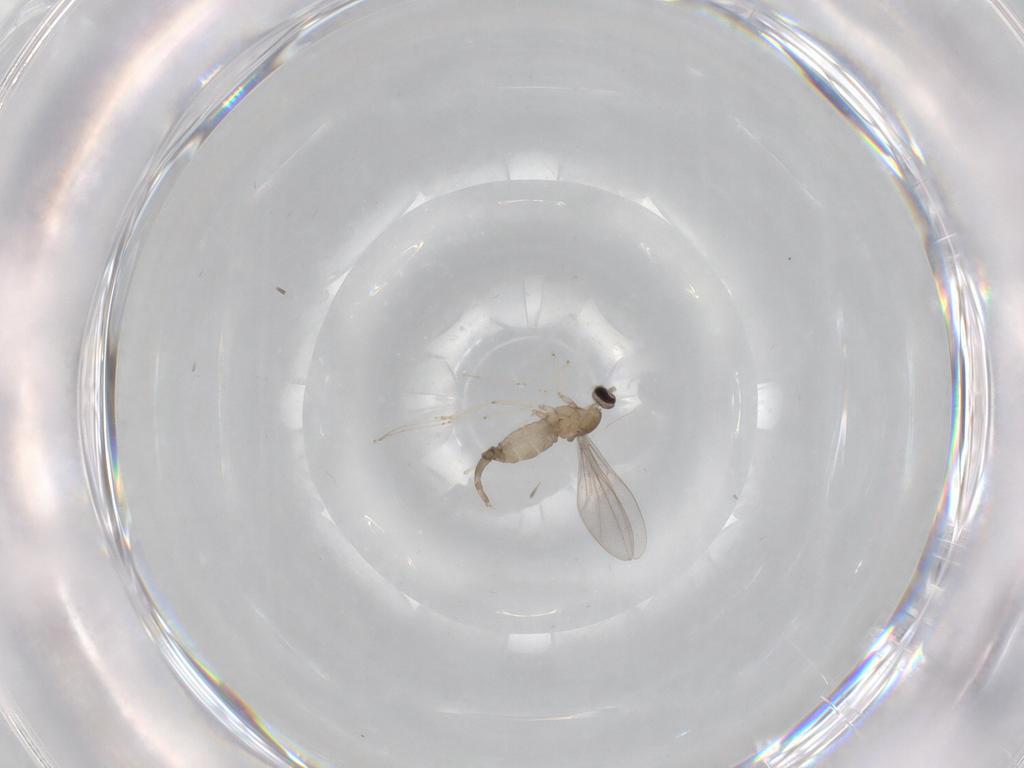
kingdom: Animalia
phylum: Arthropoda
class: Insecta
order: Diptera
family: Cecidomyiidae
